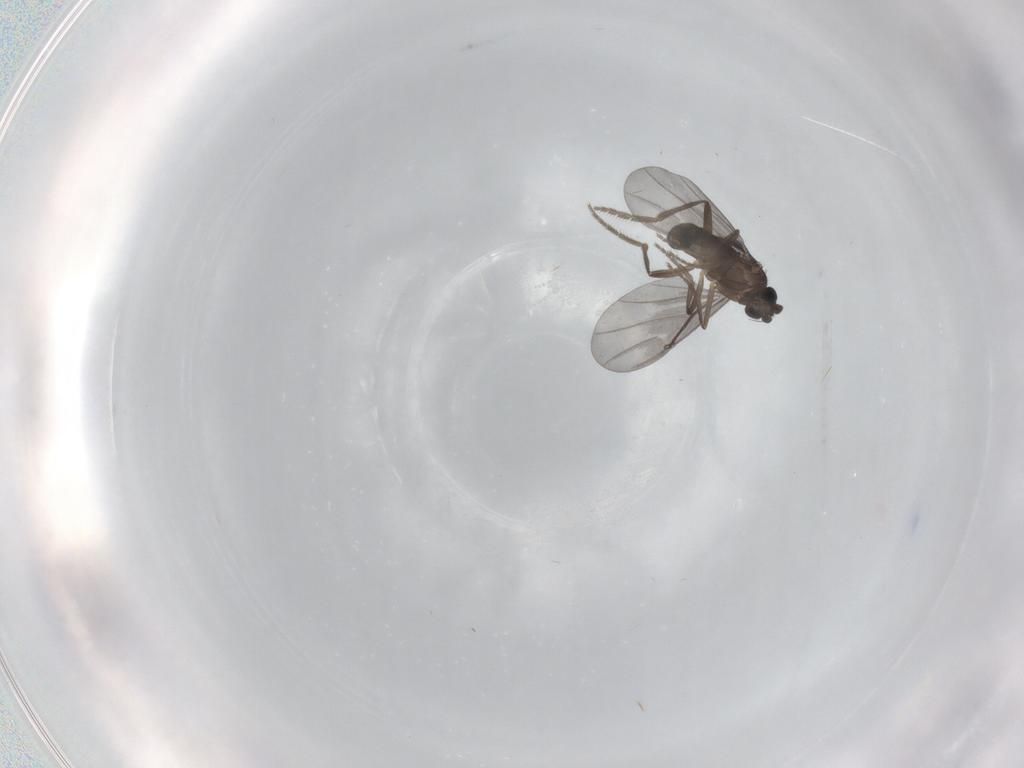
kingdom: Animalia
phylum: Arthropoda
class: Insecta
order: Diptera
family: Phoridae
